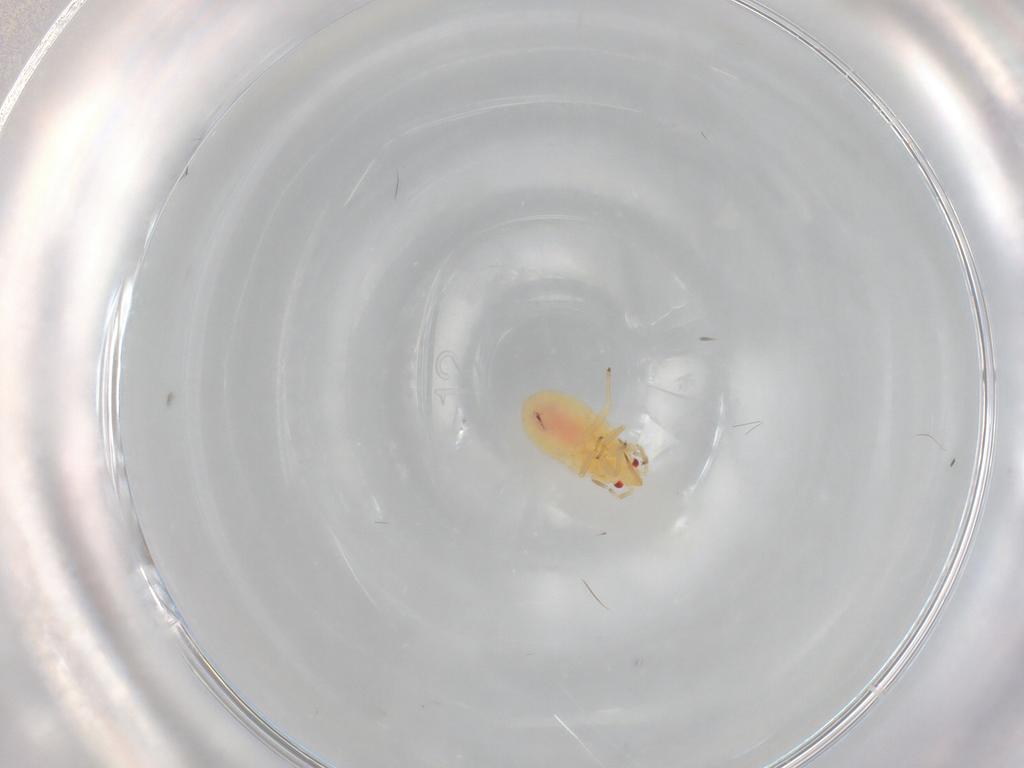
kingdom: Animalia
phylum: Arthropoda
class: Insecta
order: Hemiptera
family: Anthocoridae
